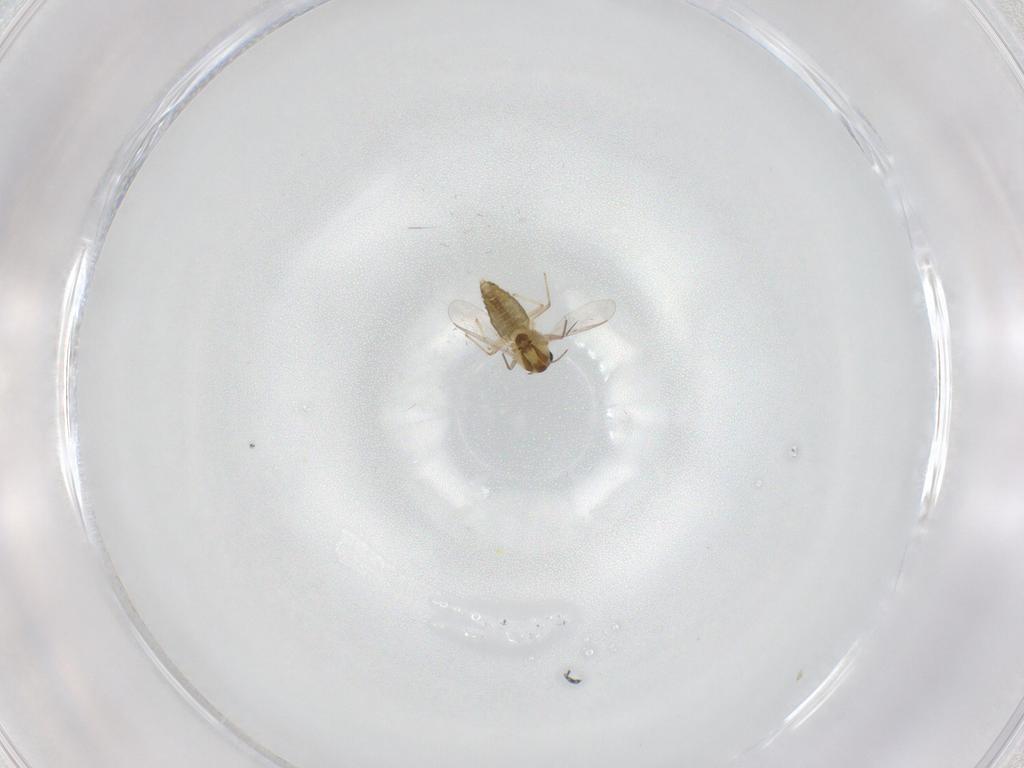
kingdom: Animalia
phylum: Arthropoda
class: Insecta
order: Diptera
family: Chironomidae
